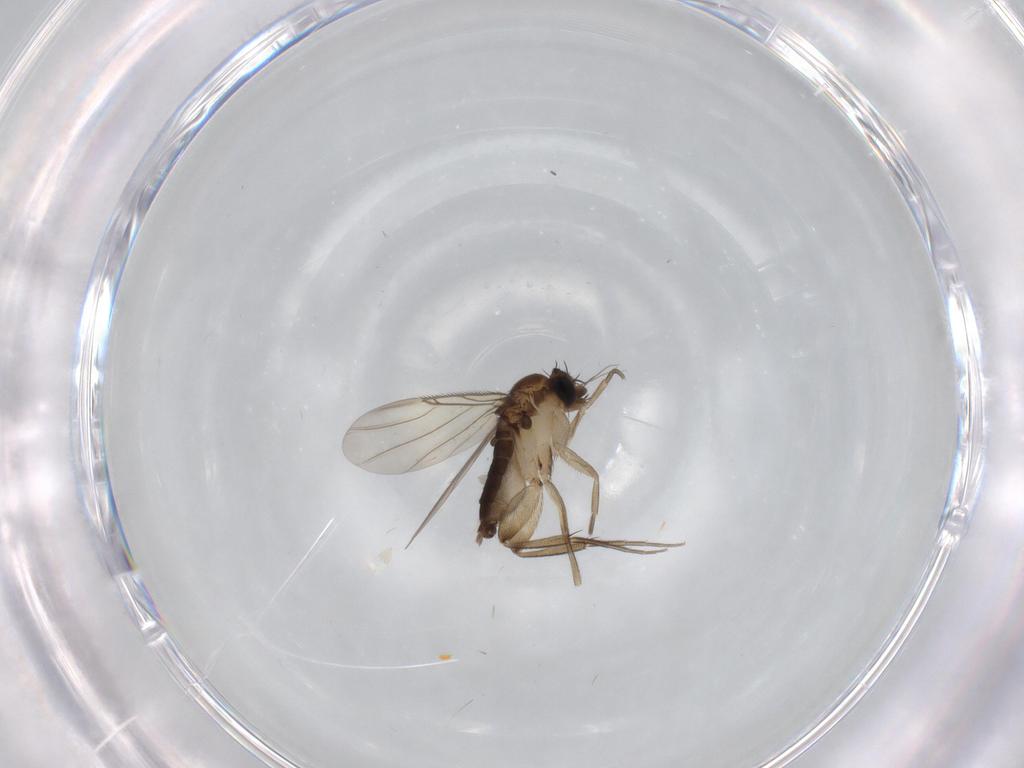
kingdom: Animalia
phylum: Arthropoda
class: Insecta
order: Diptera
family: Phoridae
